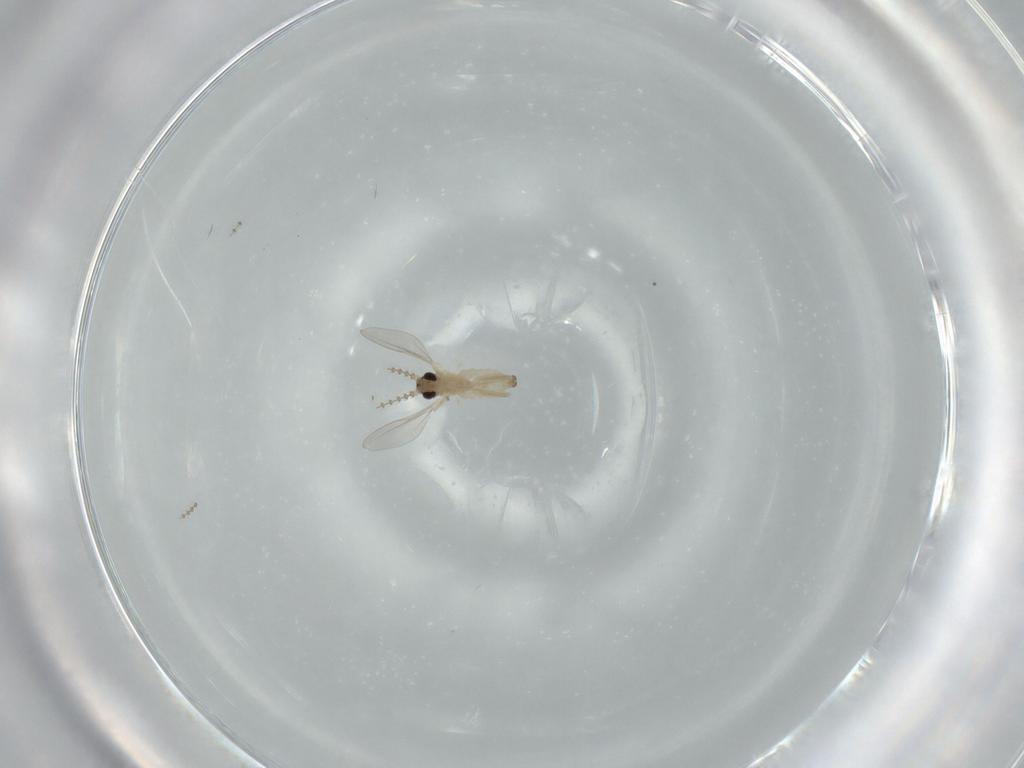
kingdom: Animalia
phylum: Arthropoda
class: Insecta
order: Diptera
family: Cecidomyiidae
